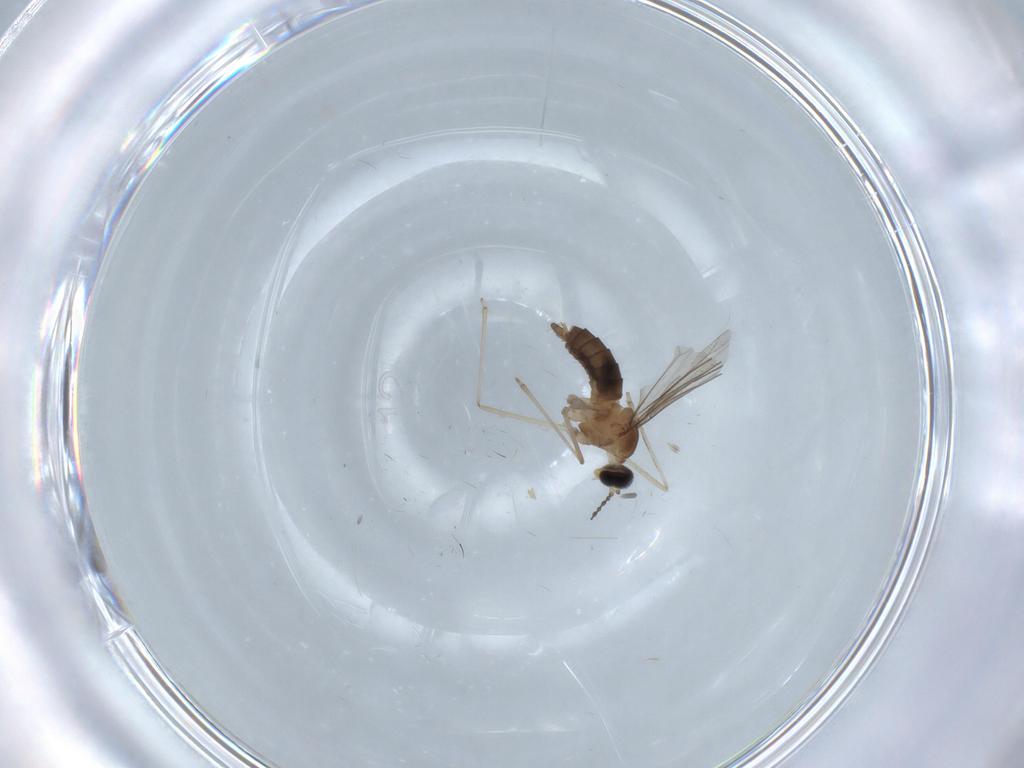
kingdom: Animalia
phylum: Arthropoda
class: Insecta
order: Diptera
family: Cecidomyiidae
